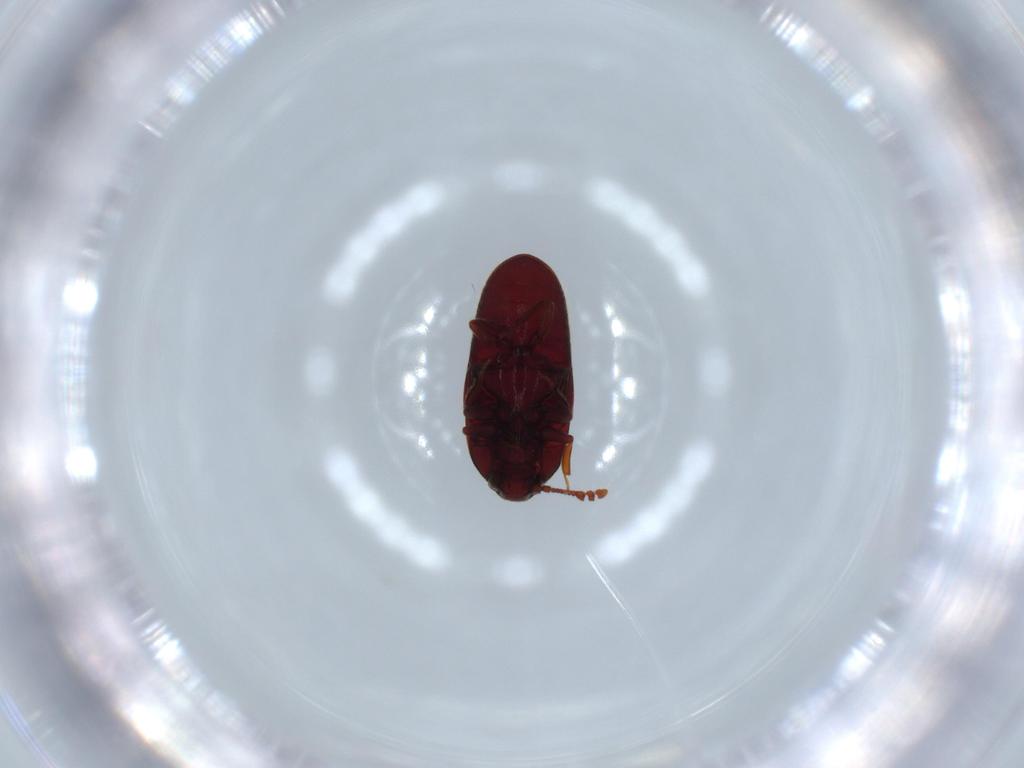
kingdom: Animalia
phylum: Arthropoda
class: Insecta
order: Coleoptera
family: Throscidae
